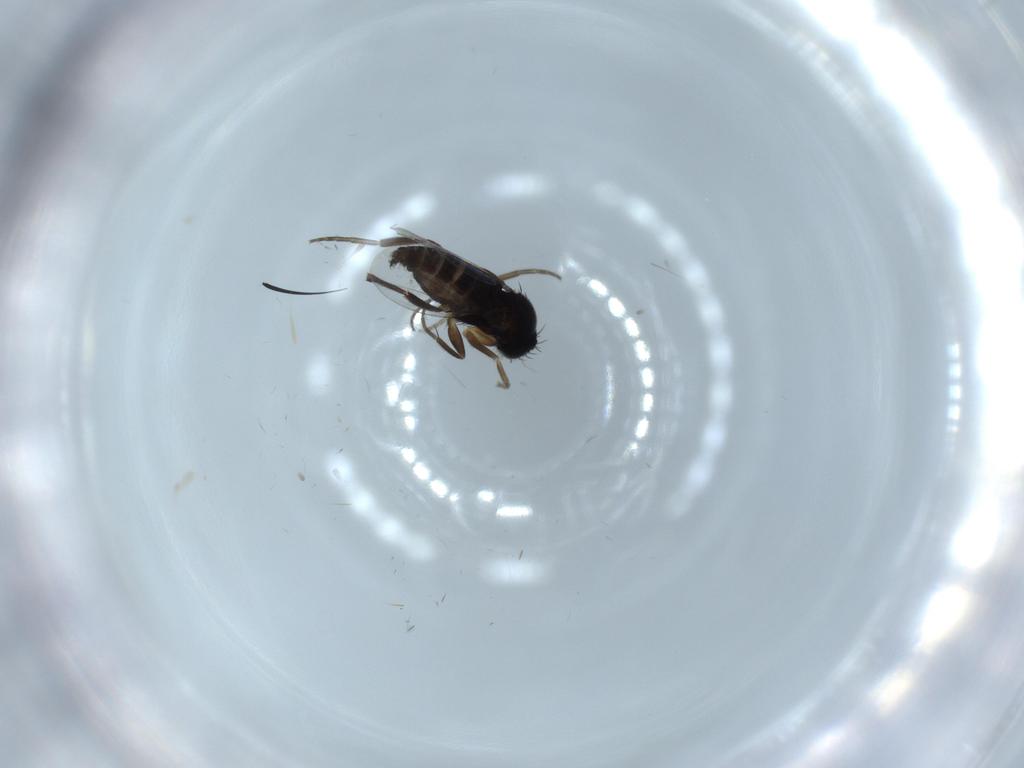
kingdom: Animalia
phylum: Arthropoda
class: Insecta
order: Diptera
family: Phoridae
